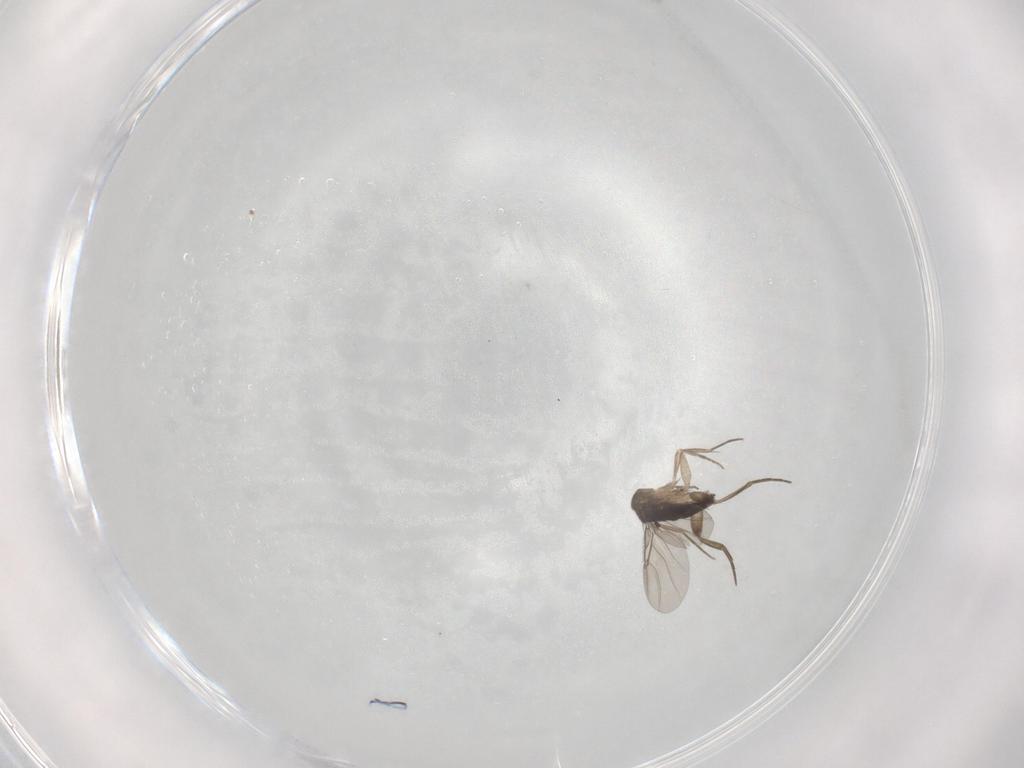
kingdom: Animalia
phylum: Arthropoda
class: Insecta
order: Diptera
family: Phoridae
